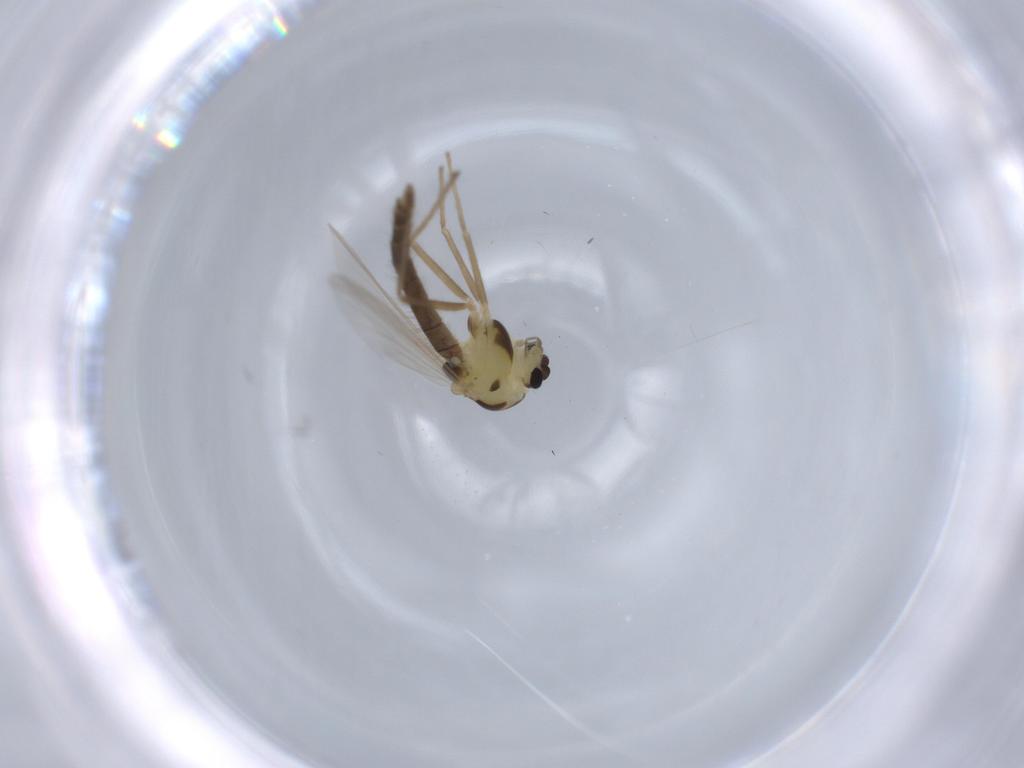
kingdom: Animalia
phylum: Arthropoda
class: Insecta
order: Diptera
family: Chironomidae
